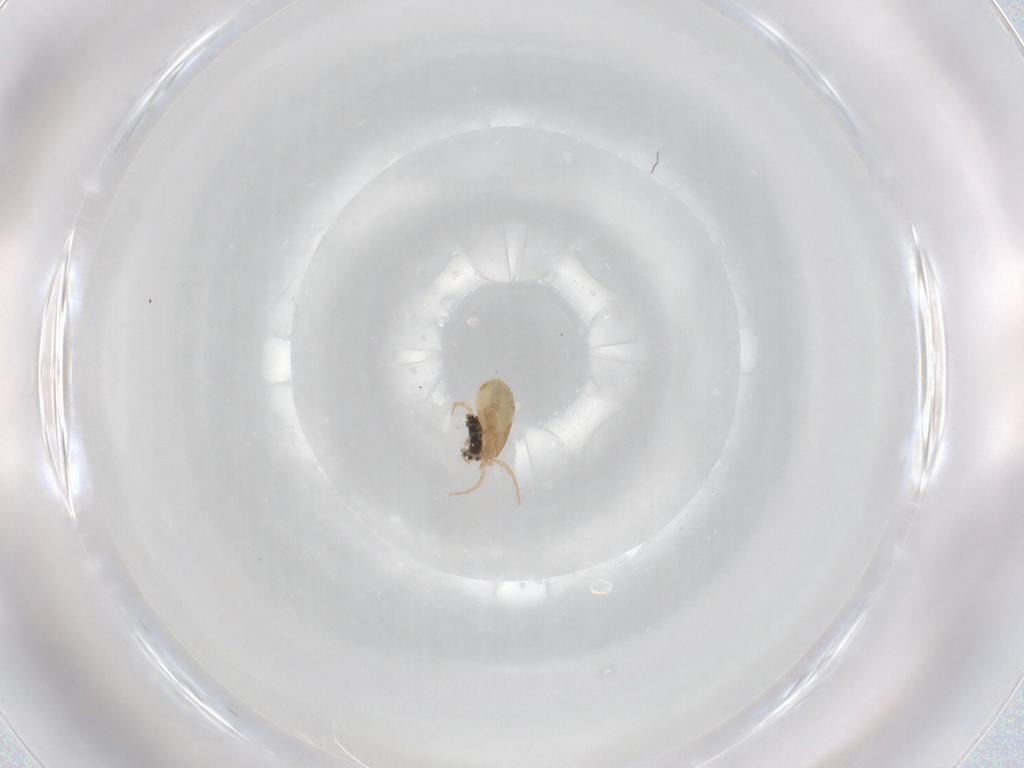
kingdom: Animalia
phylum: Arthropoda
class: Arachnida
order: Mesostigmata
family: Ascidae
